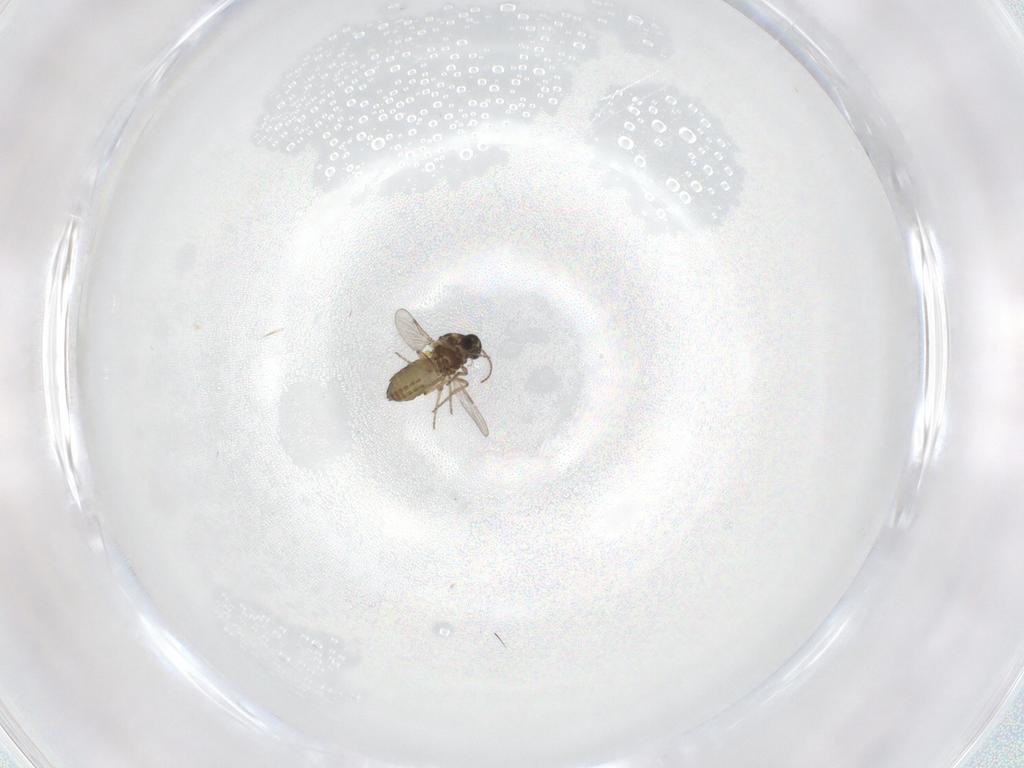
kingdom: Animalia
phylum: Arthropoda
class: Insecta
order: Diptera
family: Ceratopogonidae
